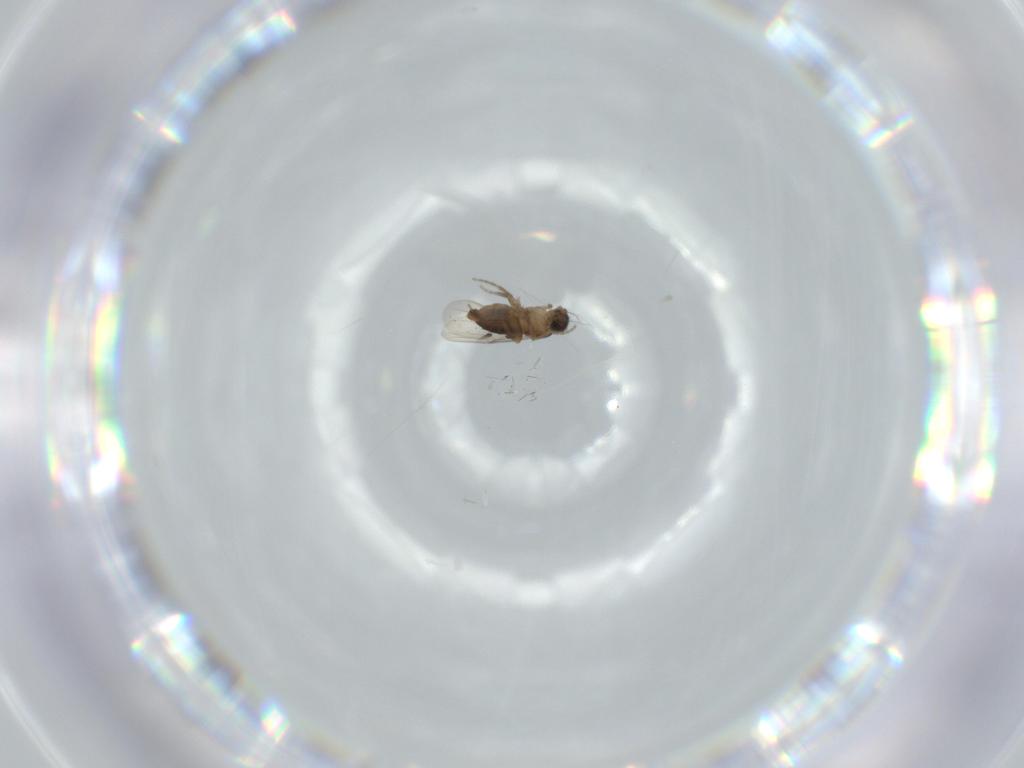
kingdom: Animalia
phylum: Arthropoda
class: Insecta
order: Diptera
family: Phoridae
